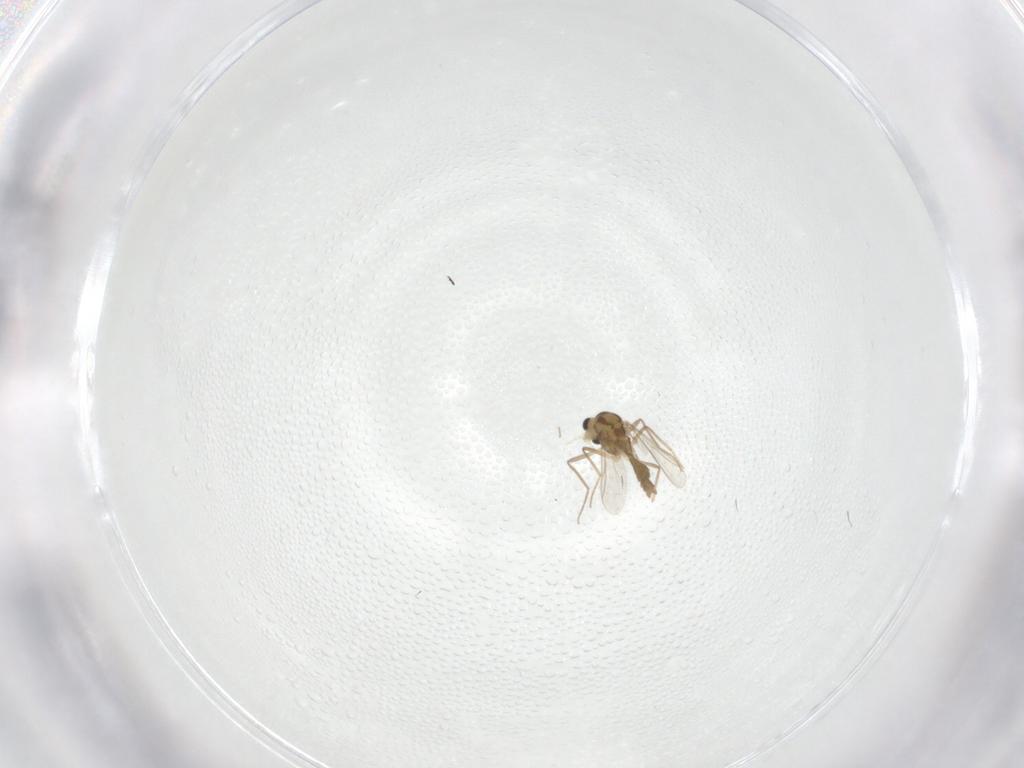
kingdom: Animalia
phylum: Arthropoda
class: Insecta
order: Diptera
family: Chironomidae
